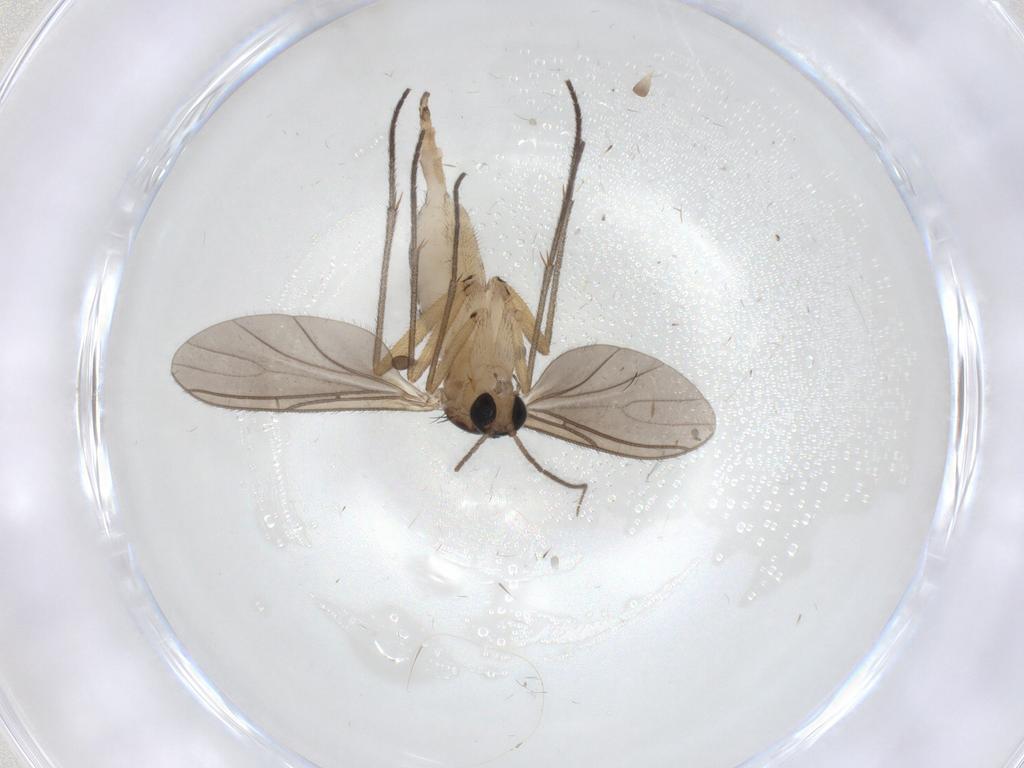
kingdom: Animalia
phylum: Arthropoda
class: Insecta
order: Diptera
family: Sciaridae
